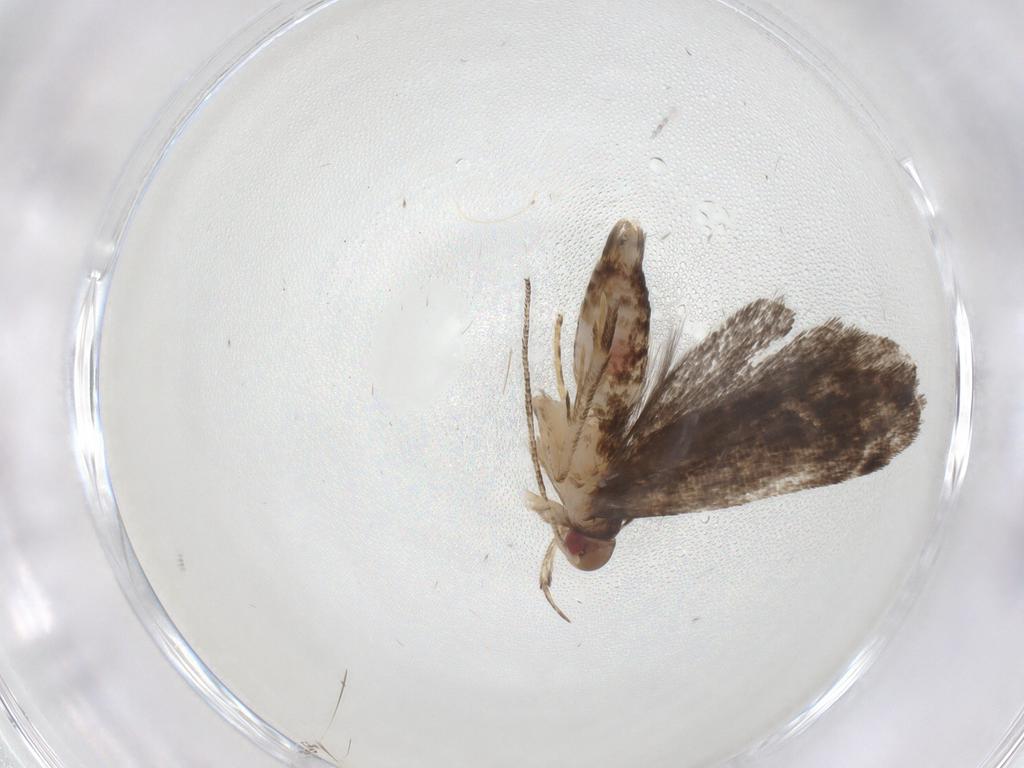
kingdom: Animalia
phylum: Arthropoda
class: Insecta
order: Lepidoptera
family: Gelechiidae
